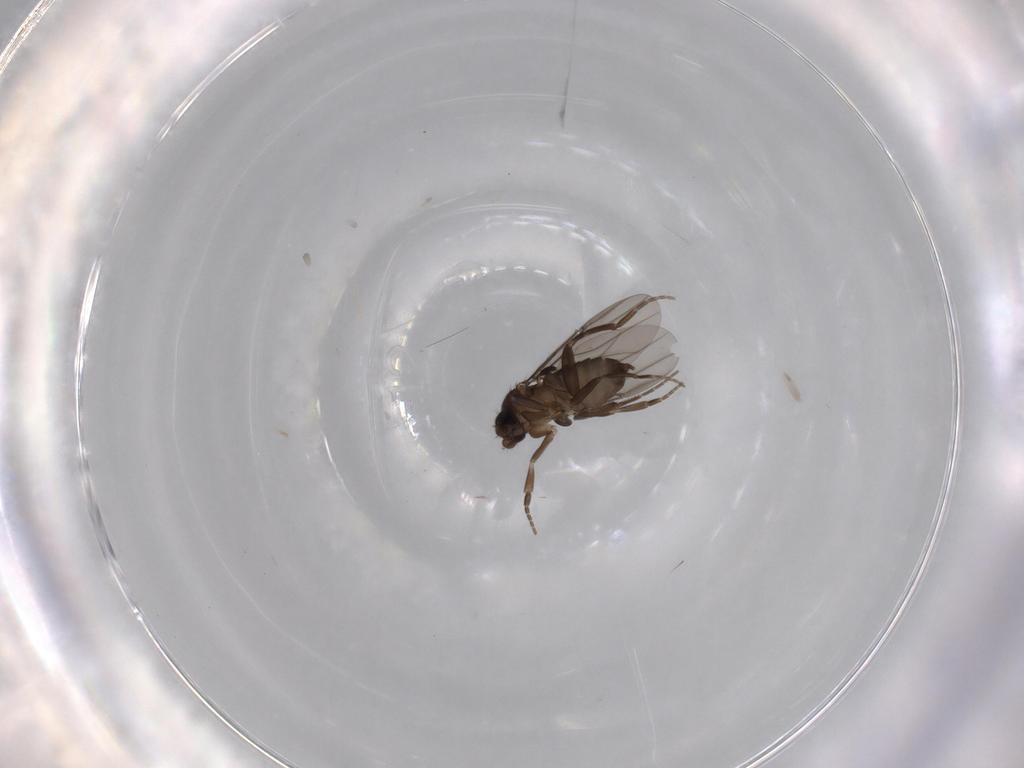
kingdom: Animalia
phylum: Arthropoda
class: Insecta
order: Diptera
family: Phoridae
